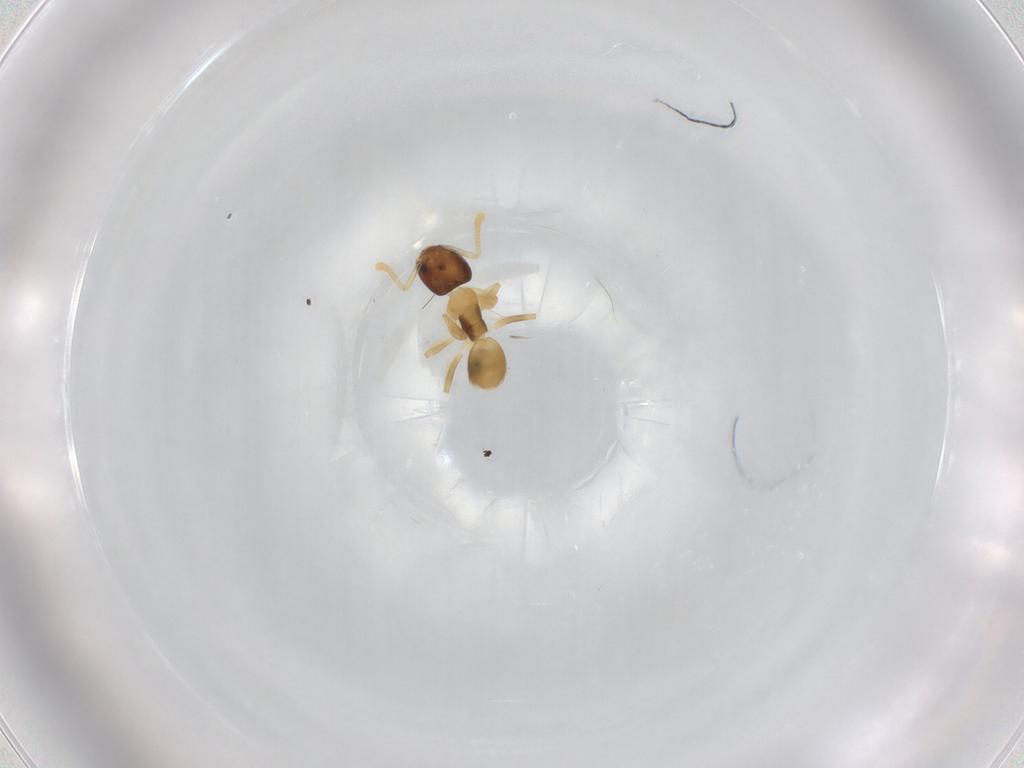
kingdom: Animalia
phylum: Arthropoda
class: Insecta
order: Hymenoptera
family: Formicidae
